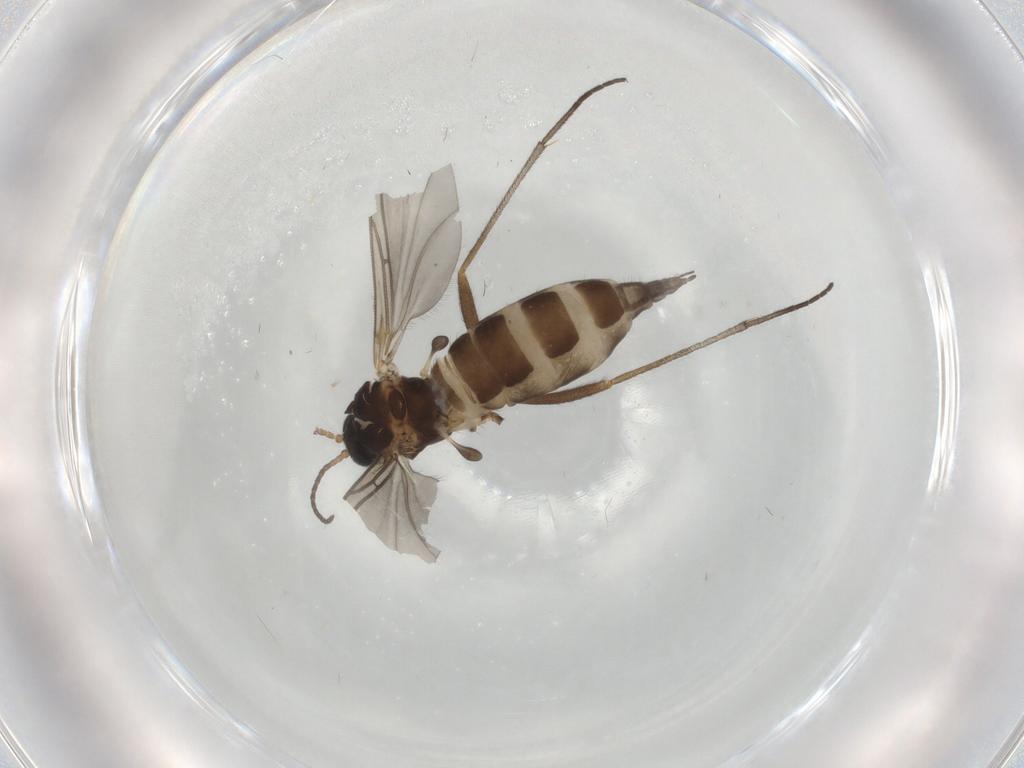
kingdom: Animalia
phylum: Arthropoda
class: Insecta
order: Diptera
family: Sciaridae
